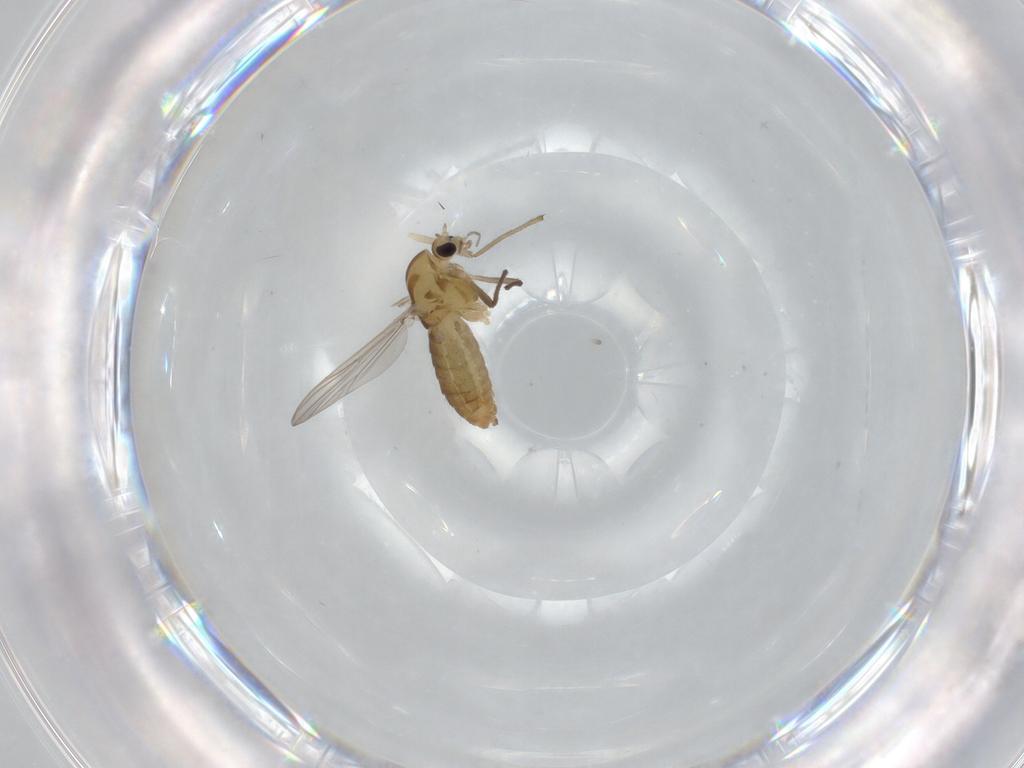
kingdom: Animalia
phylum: Arthropoda
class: Insecta
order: Diptera
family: Chironomidae
